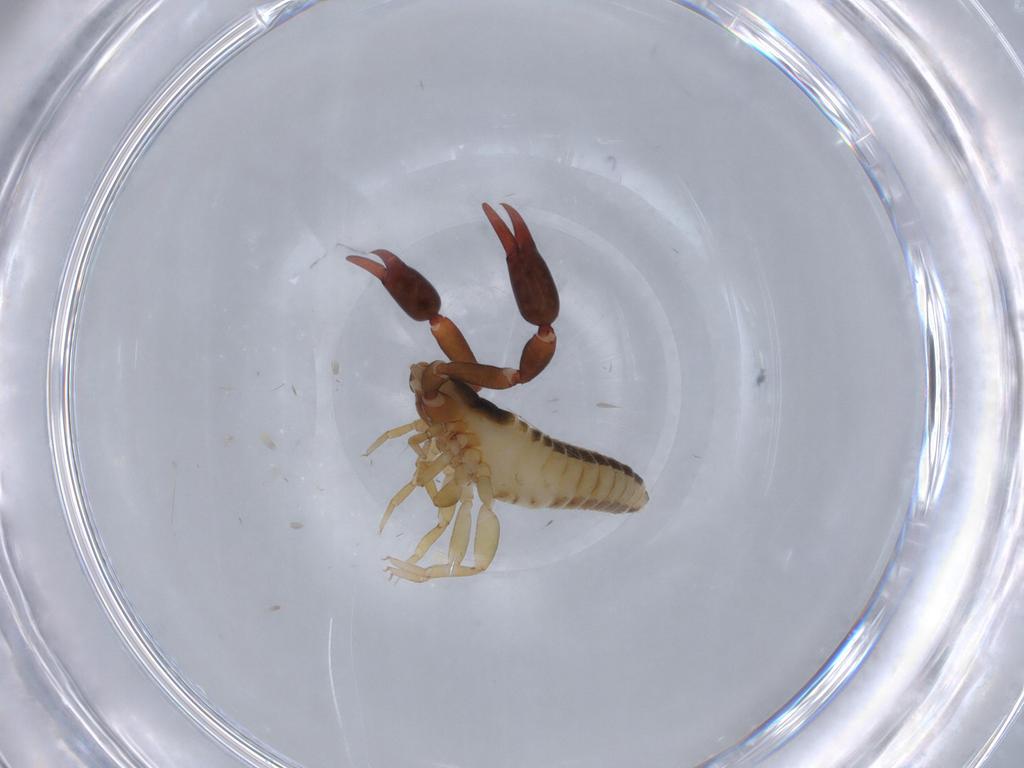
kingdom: Animalia
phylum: Arthropoda
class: Arachnida
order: Pseudoscorpiones
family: Withiidae
